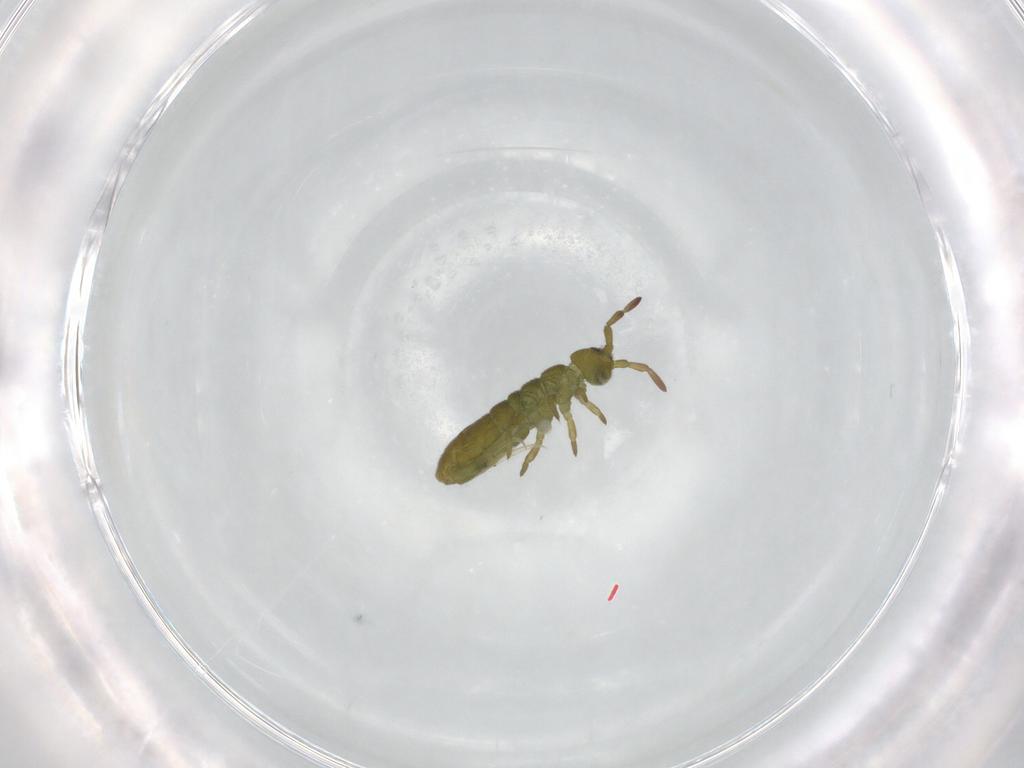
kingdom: Animalia
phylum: Arthropoda
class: Collembola
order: Entomobryomorpha
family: Isotomidae
